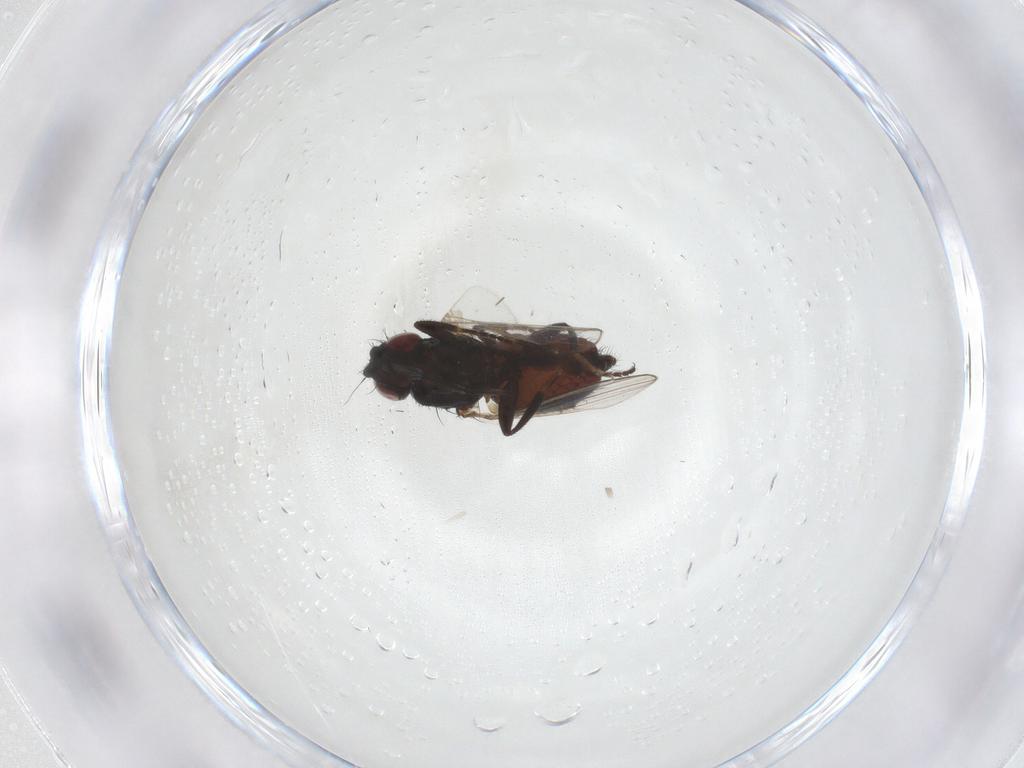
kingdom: Animalia
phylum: Arthropoda
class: Insecta
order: Diptera
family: Milichiidae
